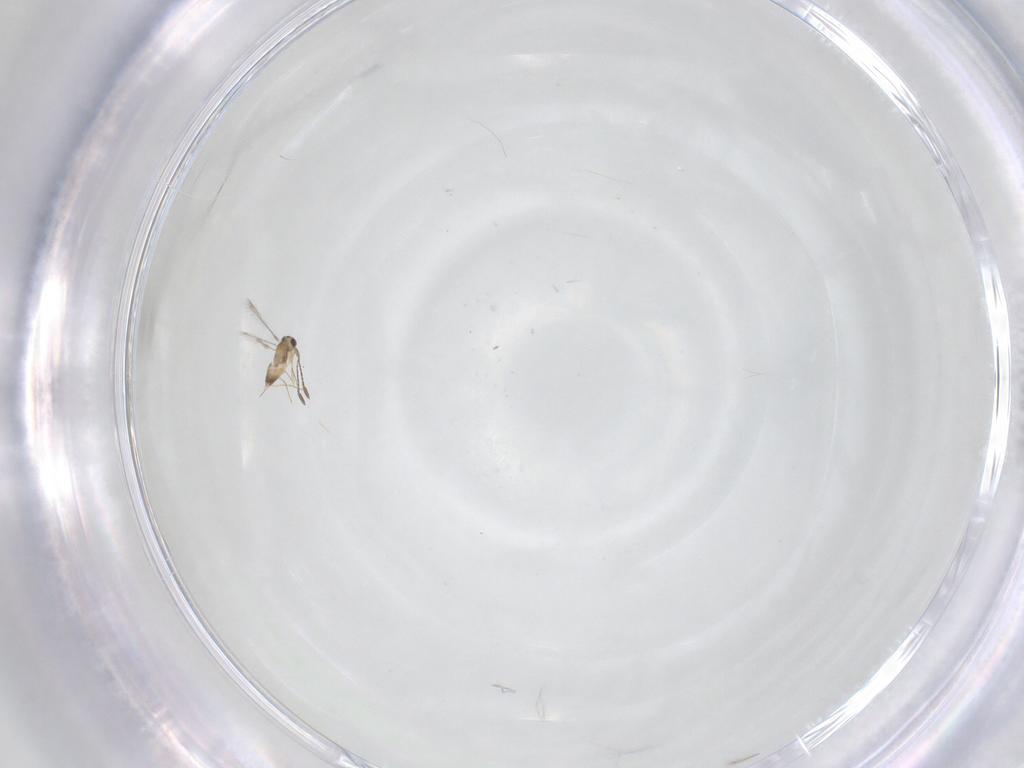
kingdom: Animalia
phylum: Arthropoda
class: Insecta
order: Hymenoptera
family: Mymaridae
